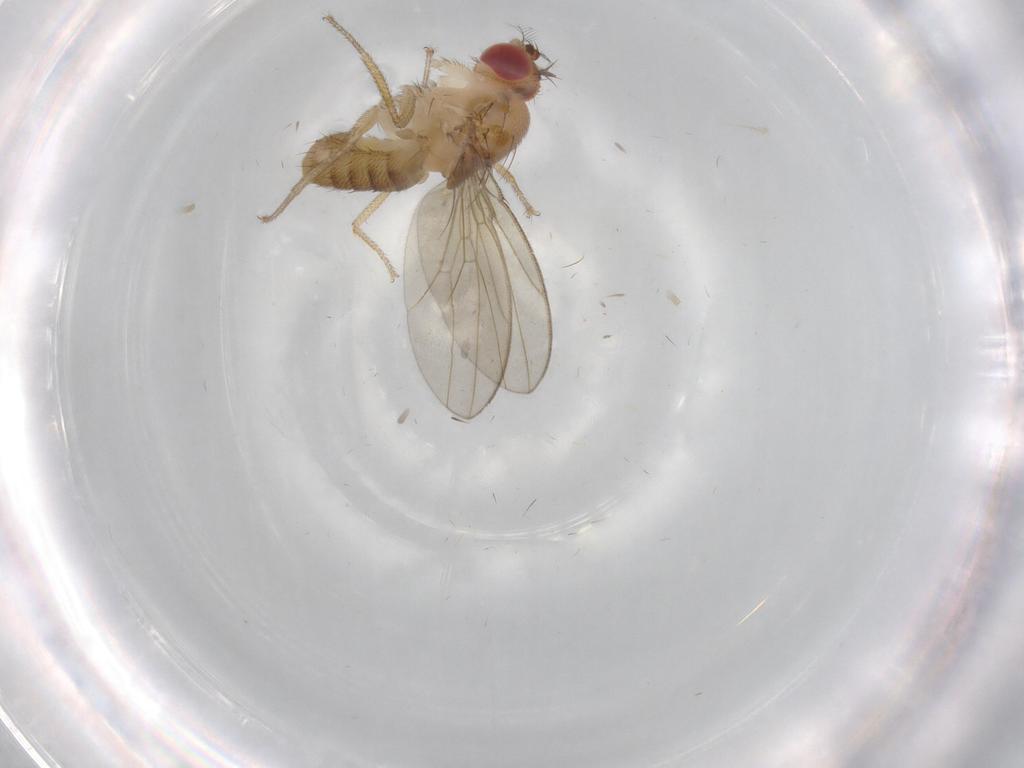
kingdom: Animalia
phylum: Arthropoda
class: Insecta
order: Diptera
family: Drosophilidae
